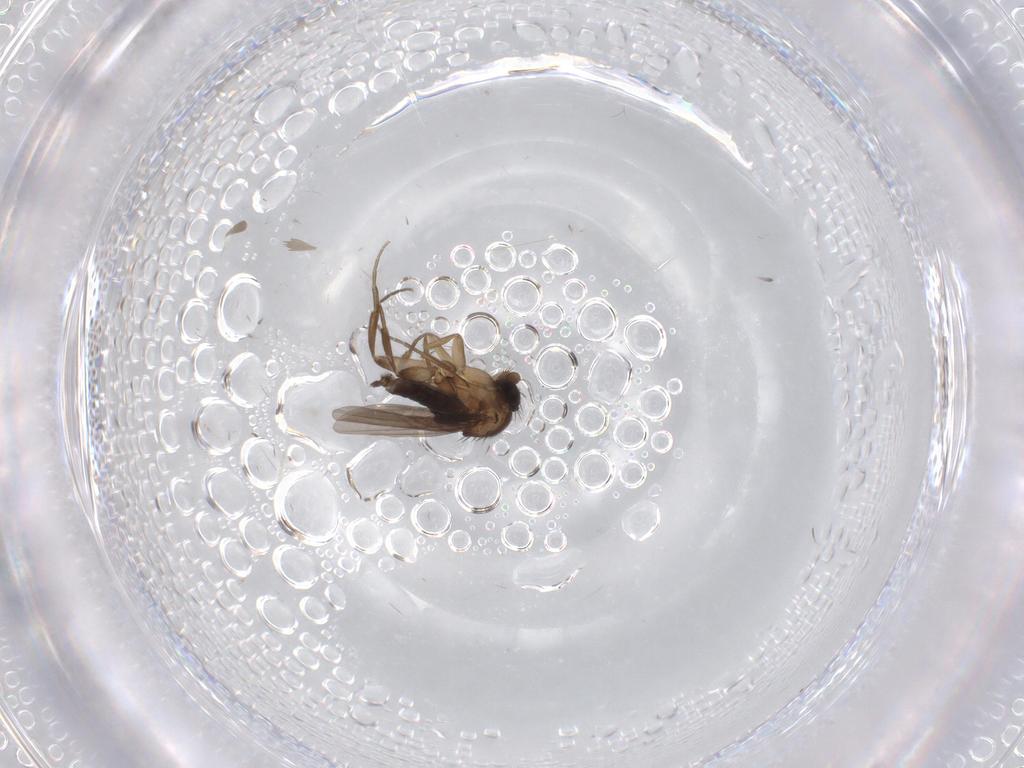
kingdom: Animalia
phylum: Arthropoda
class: Insecta
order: Diptera
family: Phoridae
